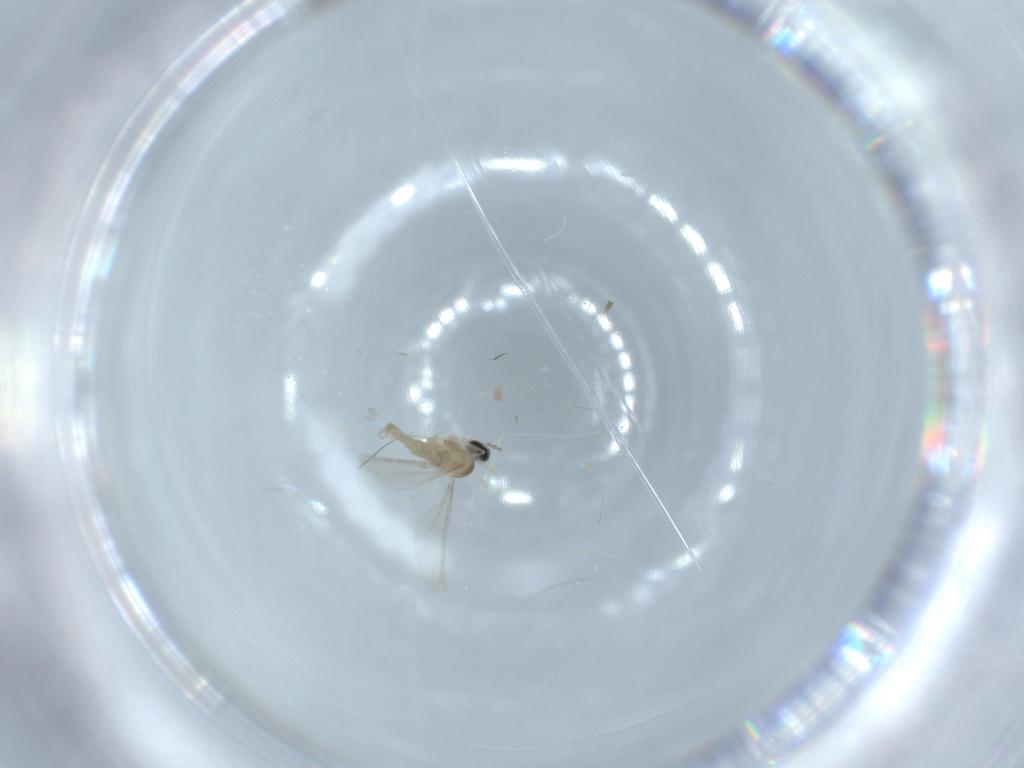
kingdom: Animalia
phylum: Arthropoda
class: Insecta
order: Diptera
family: Cecidomyiidae
